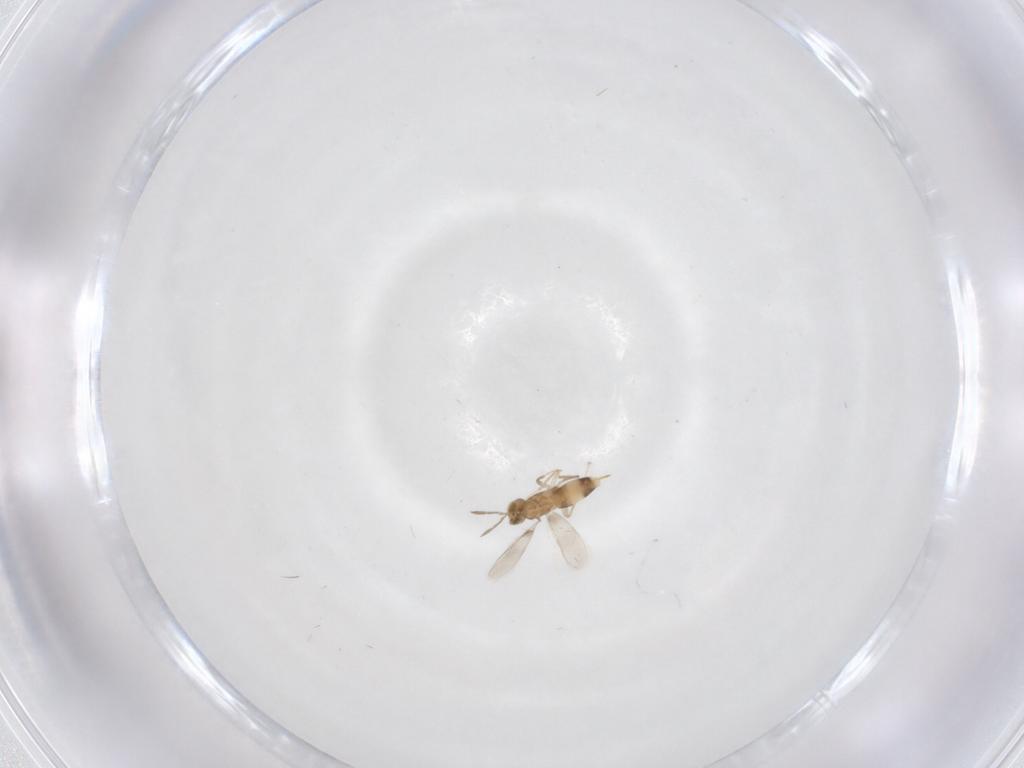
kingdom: Animalia
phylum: Arthropoda
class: Insecta
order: Hymenoptera
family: Aphelinidae
